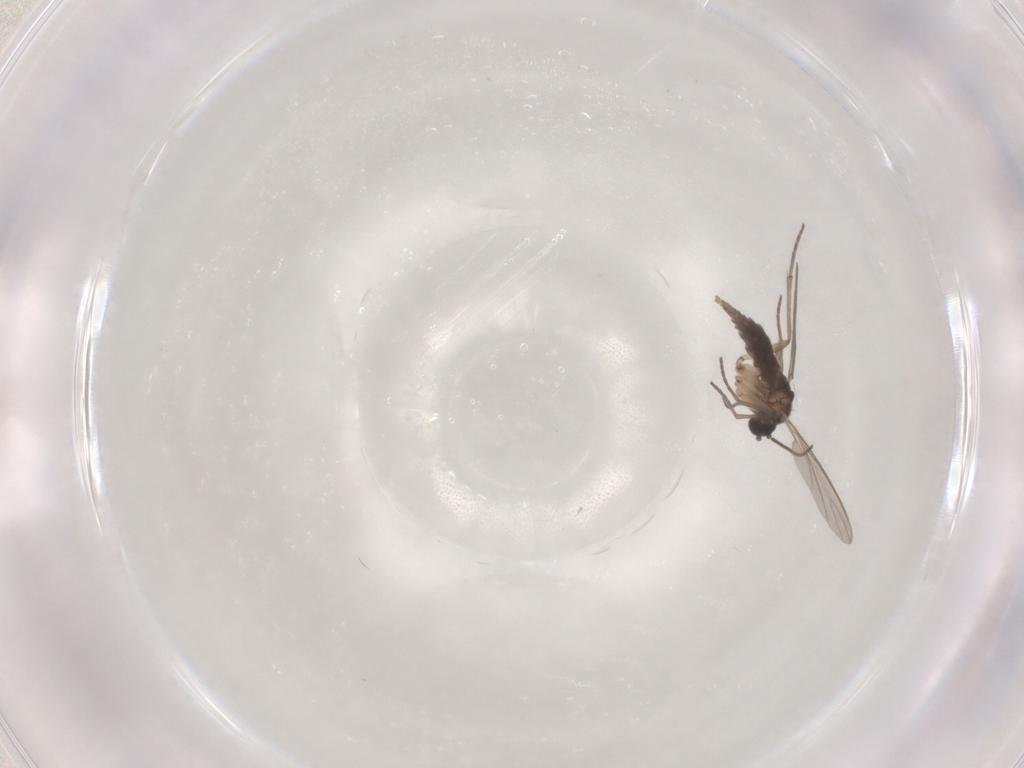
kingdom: Animalia
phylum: Arthropoda
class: Insecta
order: Diptera
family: Sciaridae
